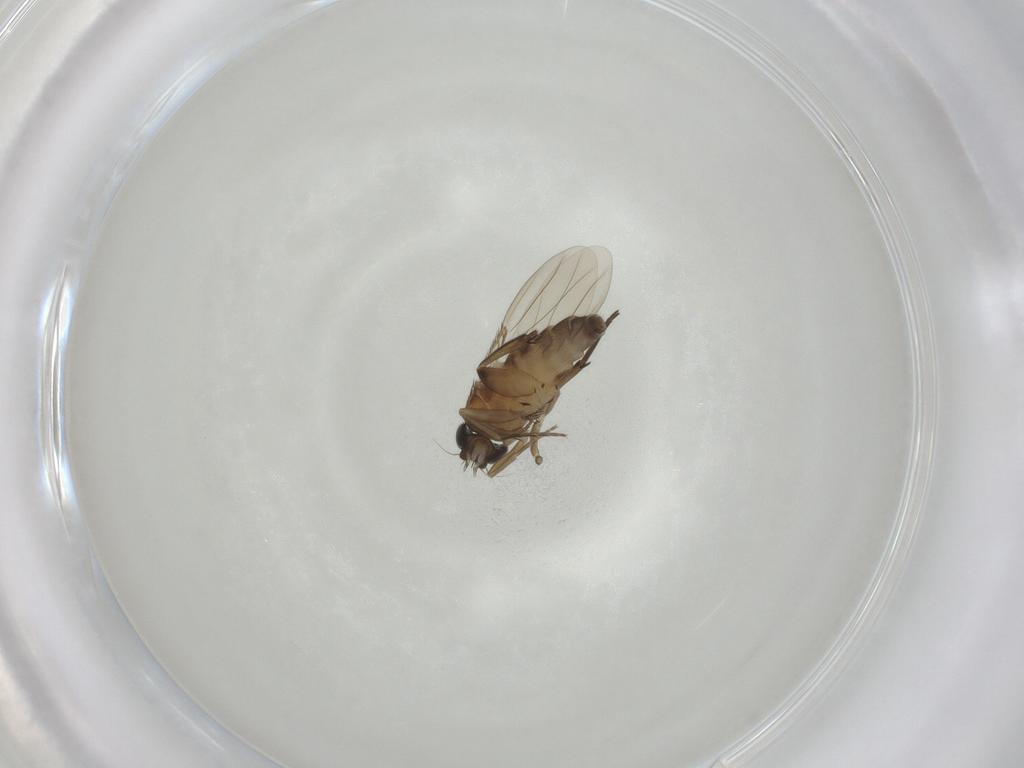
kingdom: Animalia
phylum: Arthropoda
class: Insecta
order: Diptera
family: Phoridae
